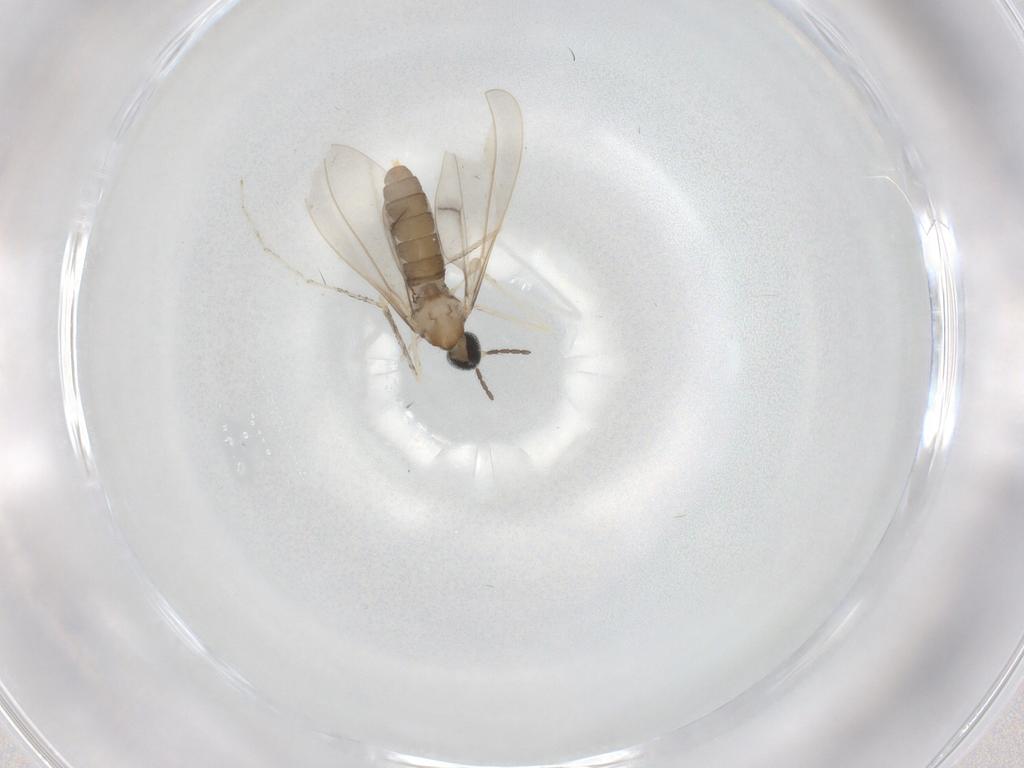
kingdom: Animalia
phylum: Arthropoda
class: Insecta
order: Diptera
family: Cecidomyiidae
